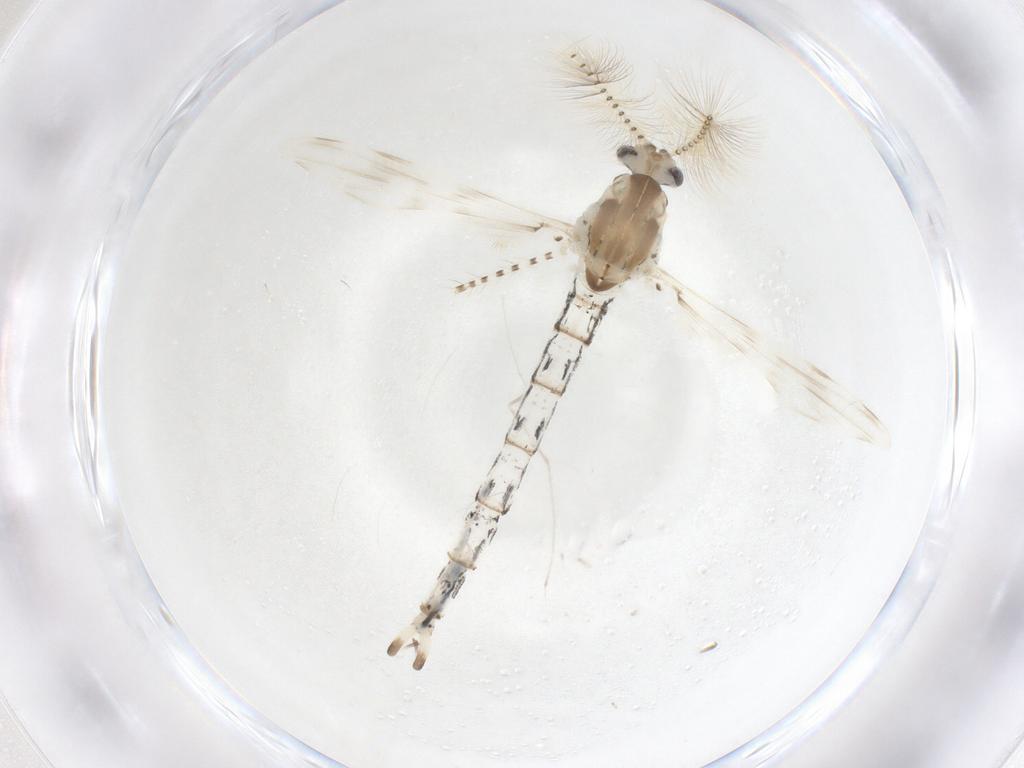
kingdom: Animalia
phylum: Arthropoda
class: Insecta
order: Diptera
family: Chaoboridae
